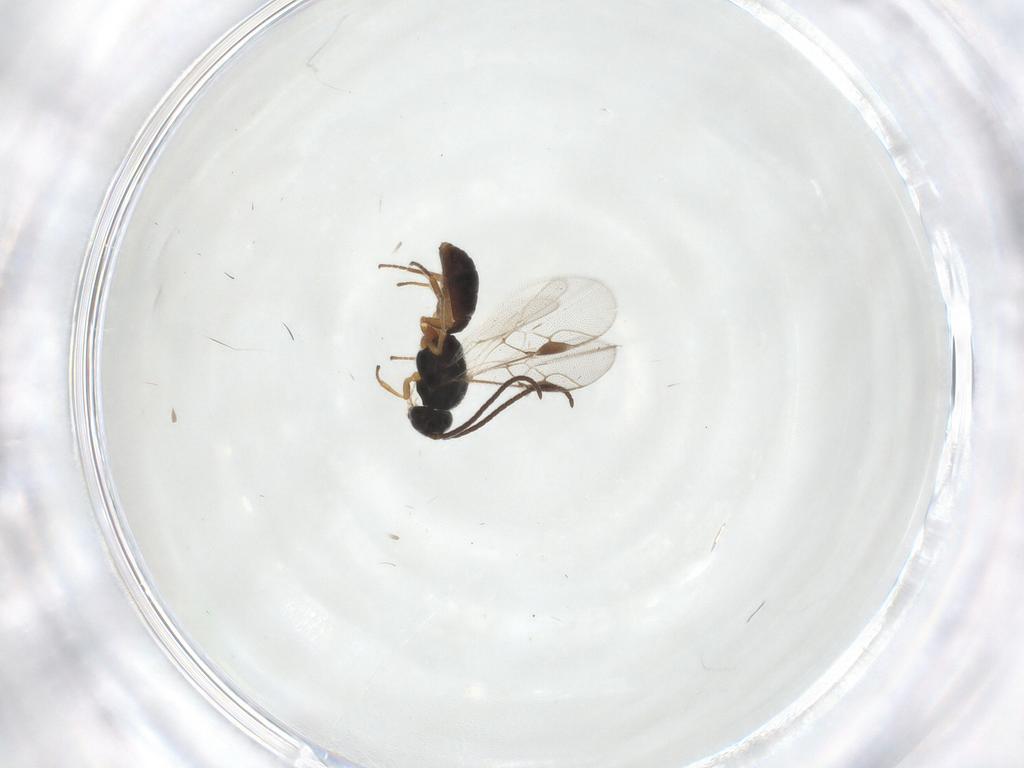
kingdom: Animalia
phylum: Arthropoda
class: Insecta
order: Hymenoptera
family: Braconidae
